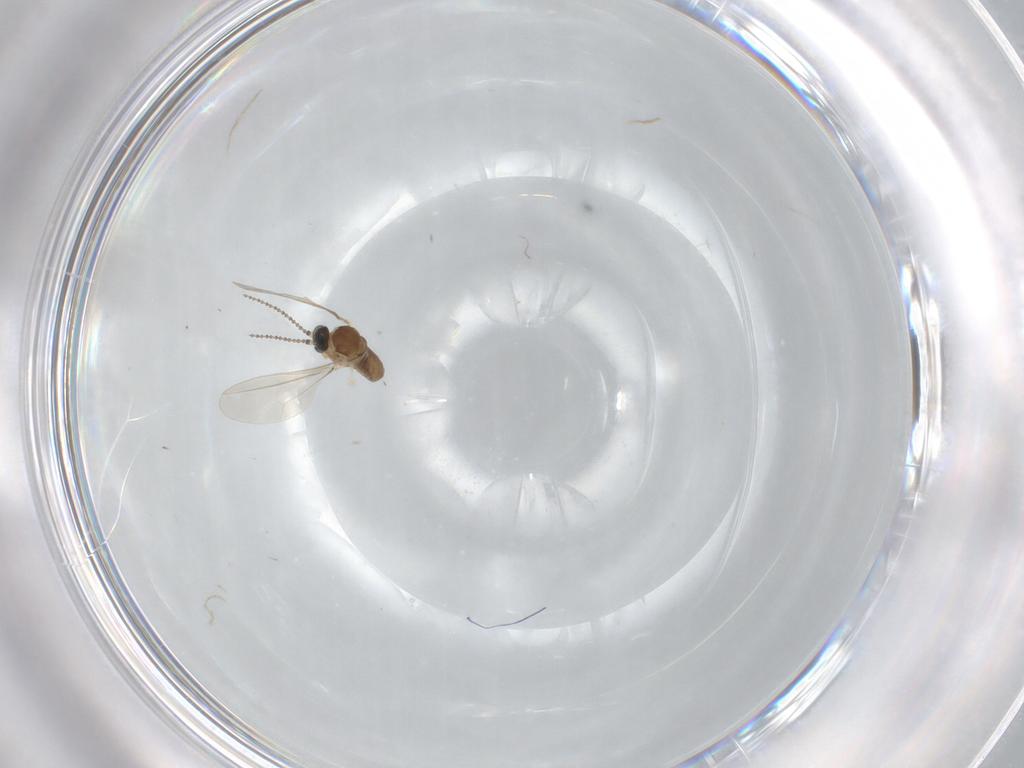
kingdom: Animalia
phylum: Arthropoda
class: Insecta
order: Diptera
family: Cecidomyiidae
